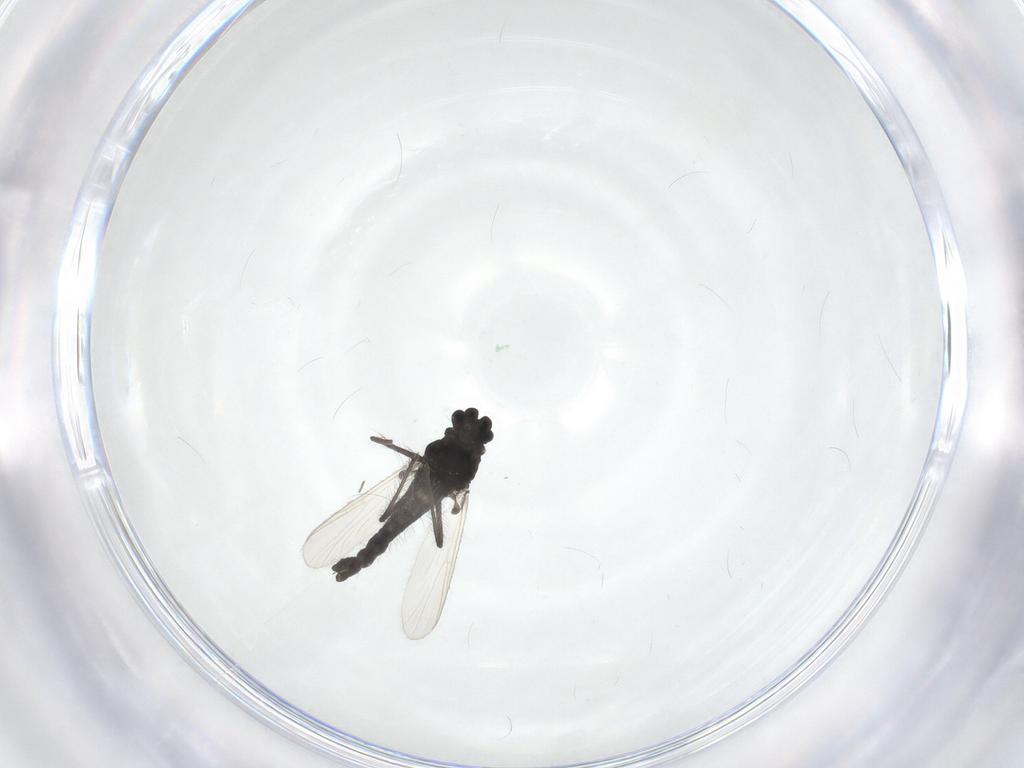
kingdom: Animalia
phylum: Arthropoda
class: Insecta
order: Diptera
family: Chironomidae
